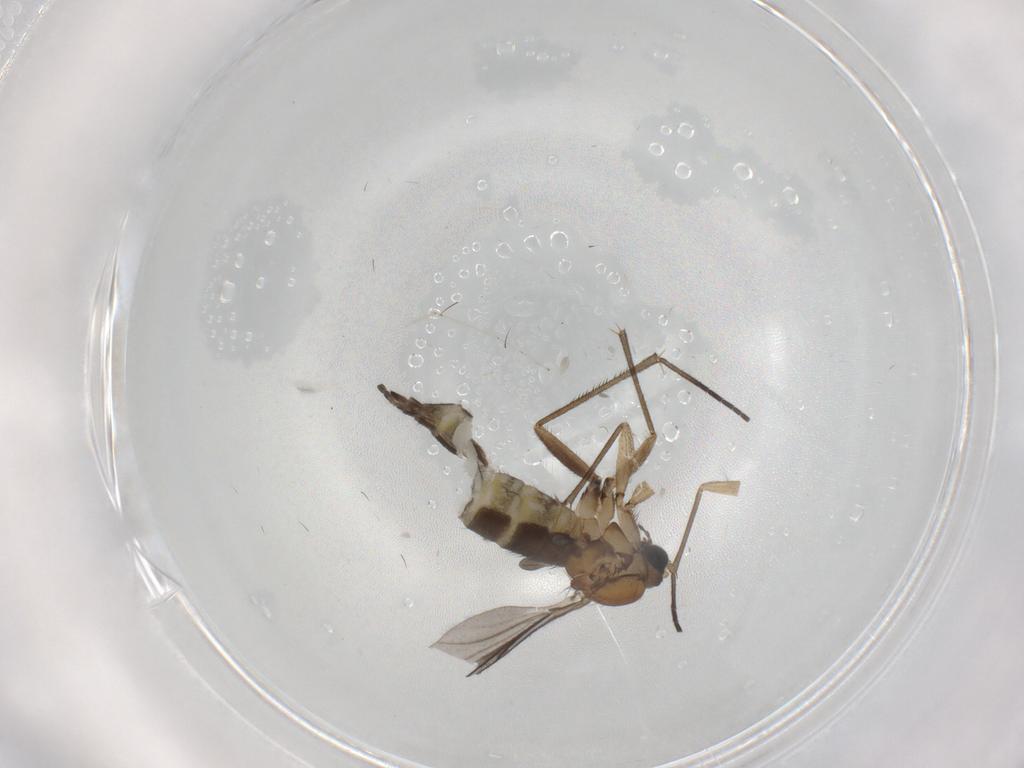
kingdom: Animalia
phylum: Arthropoda
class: Insecta
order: Diptera
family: Sciaridae
